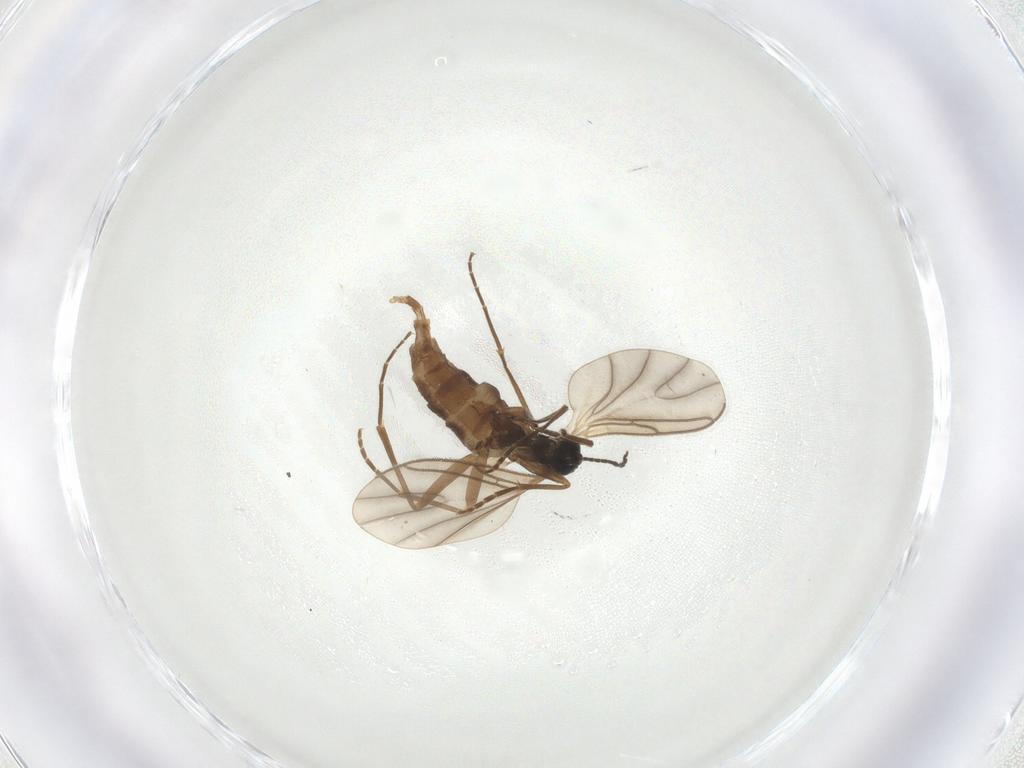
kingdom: Animalia
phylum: Arthropoda
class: Insecta
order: Diptera
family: Sciaridae
